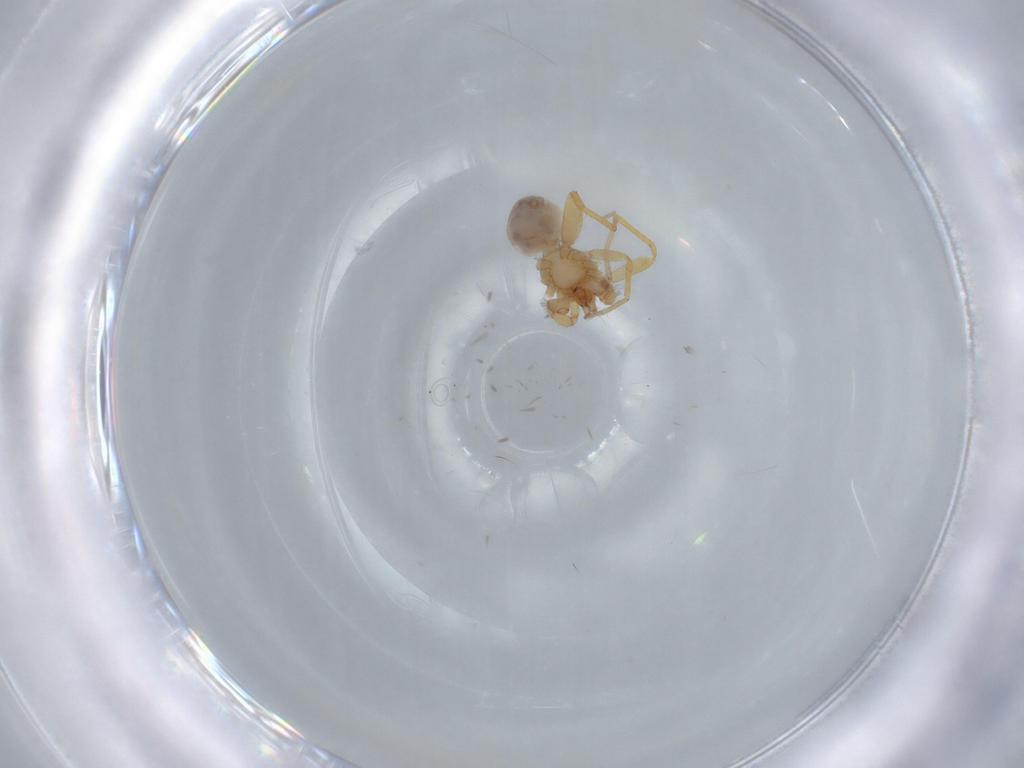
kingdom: Animalia
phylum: Arthropoda
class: Arachnida
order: Araneae
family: Oonopidae
